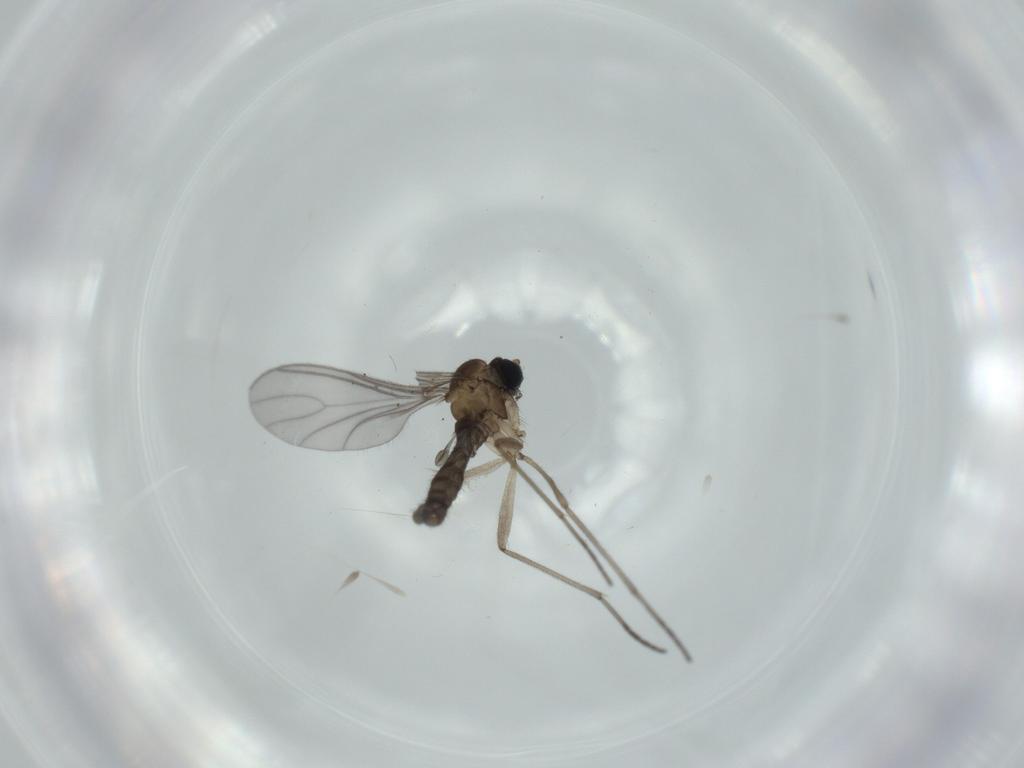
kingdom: Animalia
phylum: Arthropoda
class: Insecta
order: Diptera
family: Sciaridae
